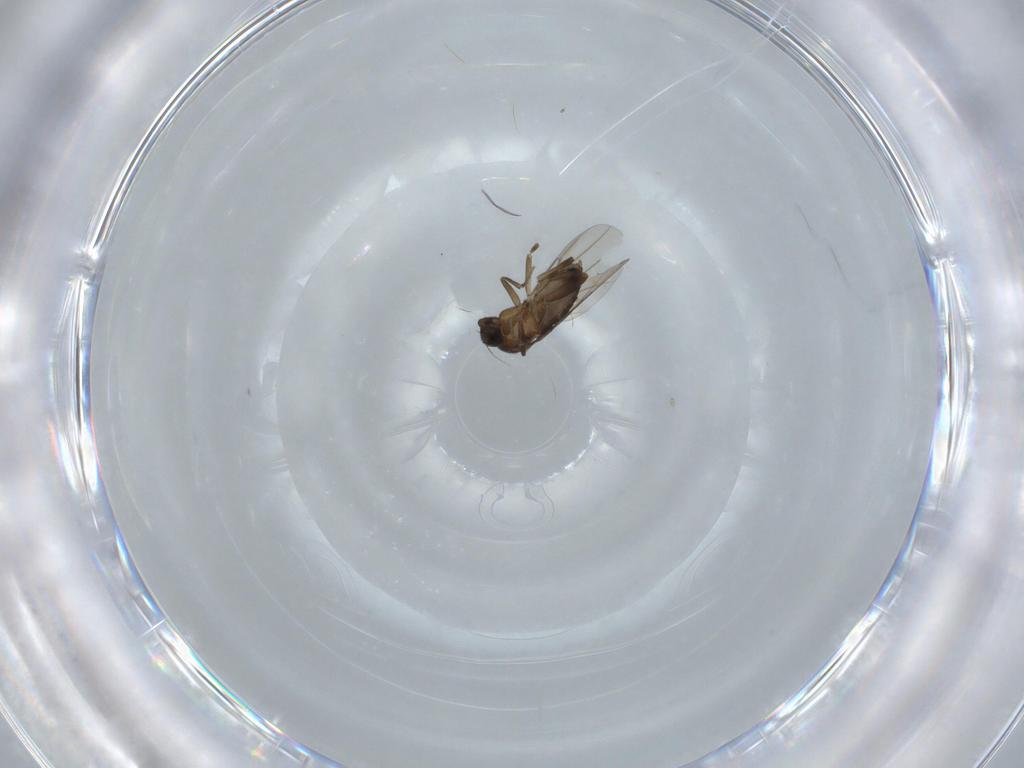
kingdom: Animalia
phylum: Arthropoda
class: Insecta
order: Diptera
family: Phoridae
